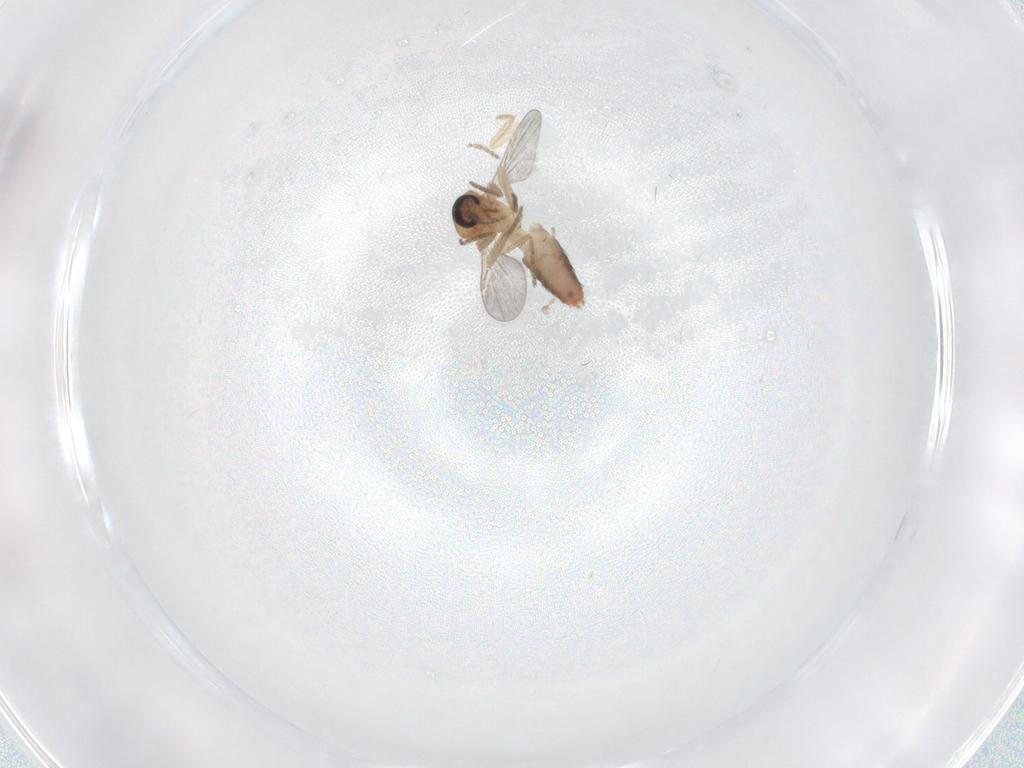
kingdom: Animalia
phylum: Arthropoda
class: Insecta
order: Diptera
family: Ceratopogonidae
